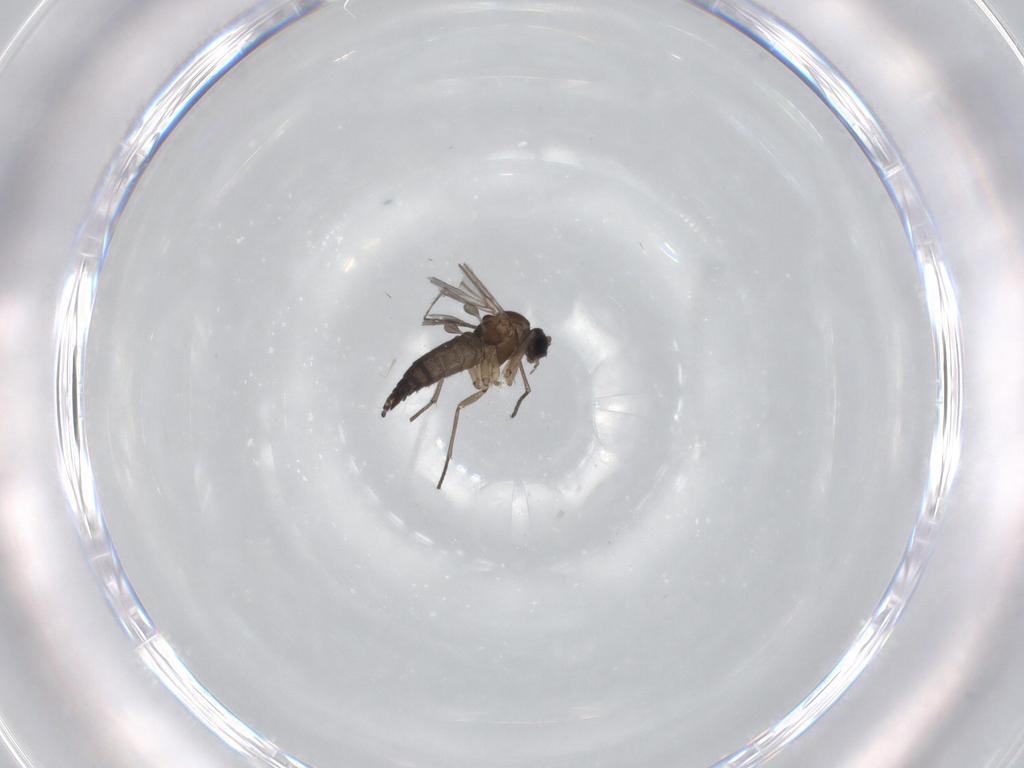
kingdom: Animalia
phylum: Arthropoda
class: Insecta
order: Diptera
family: Sciaridae
